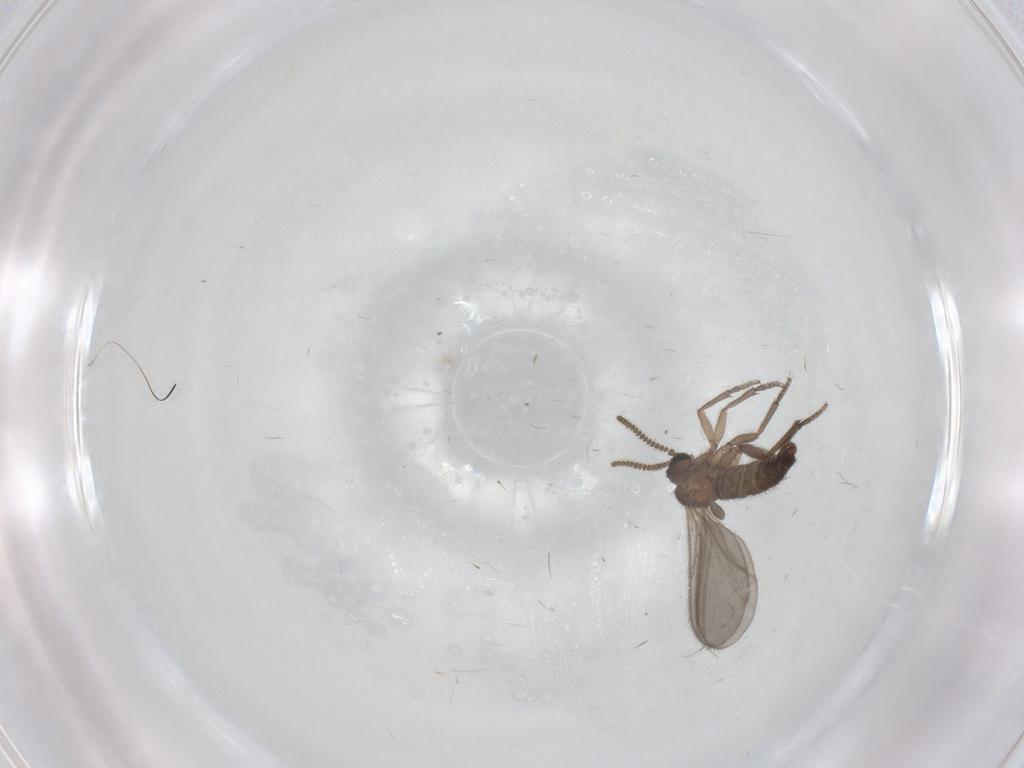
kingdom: Animalia
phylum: Arthropoda
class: Insecta
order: Diptera
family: Sciaridae
